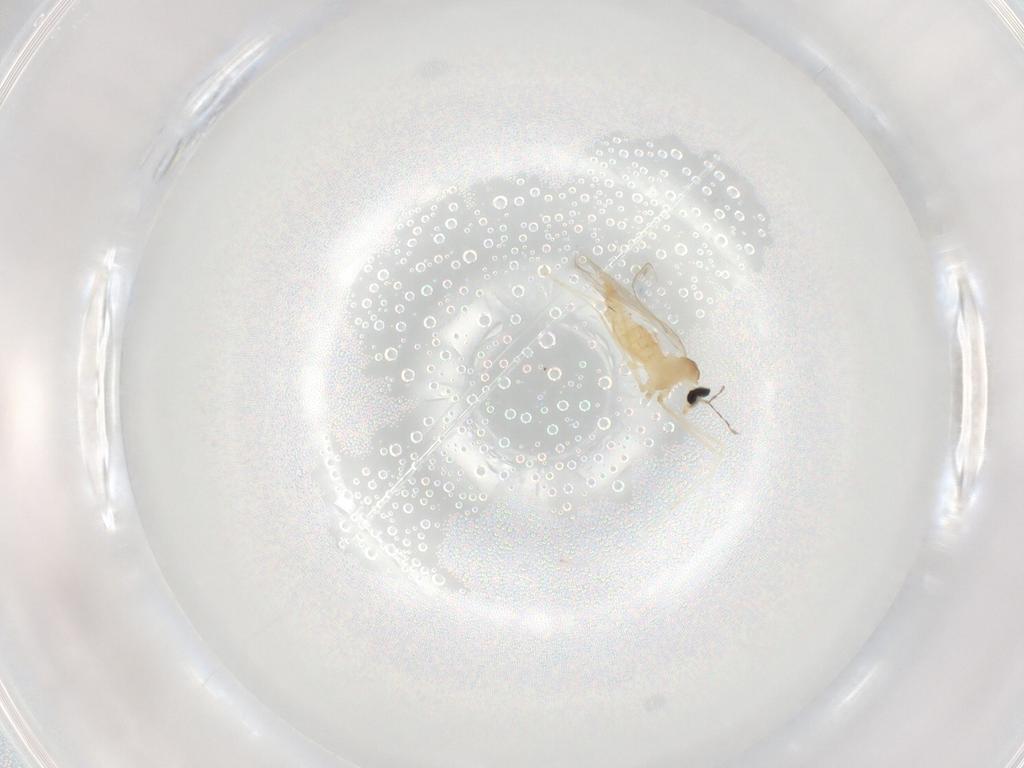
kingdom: Animalia
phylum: Arthropoda
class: Insecta
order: Diptera
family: Cecidomyiidae
